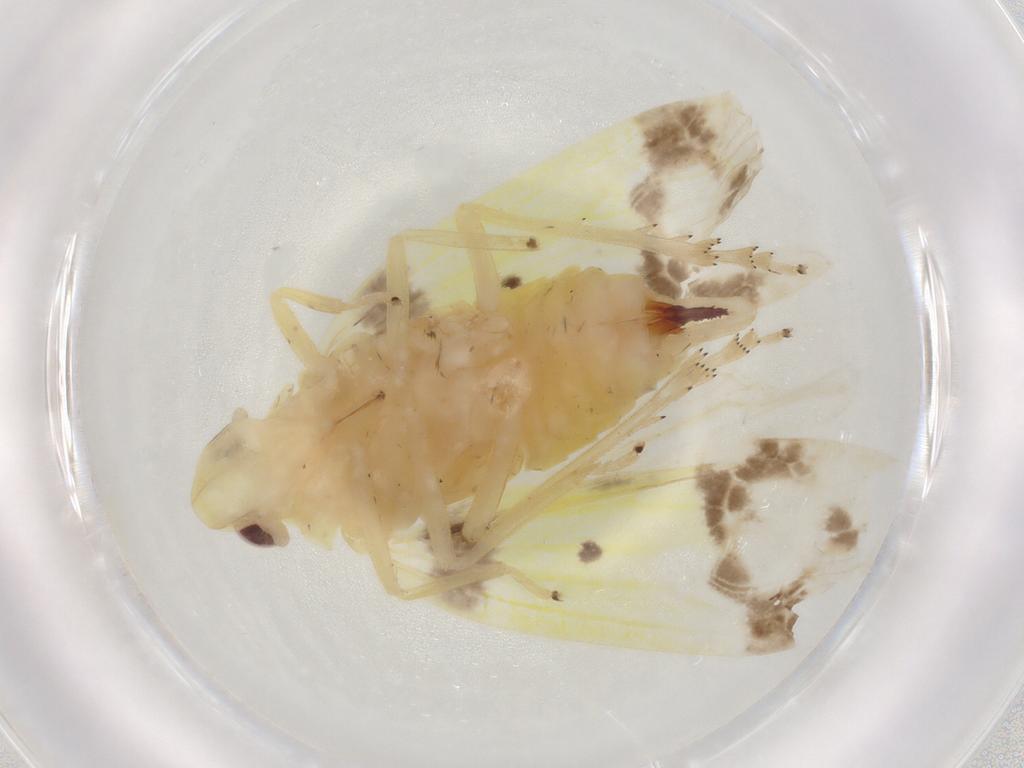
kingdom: Animalia
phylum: Arthropoda
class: Insecta
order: Hemiptera
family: Tropiduchidae
